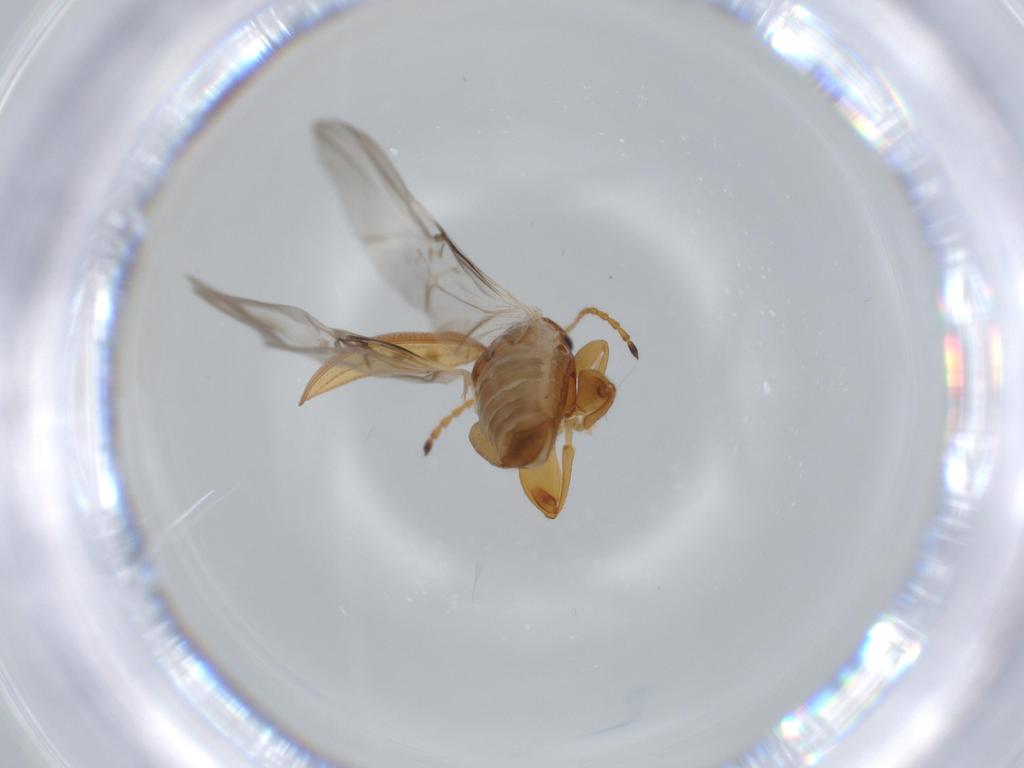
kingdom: Animalia
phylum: Arthropoda
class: Insecta
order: Coleoptera
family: Chrysomelidae
